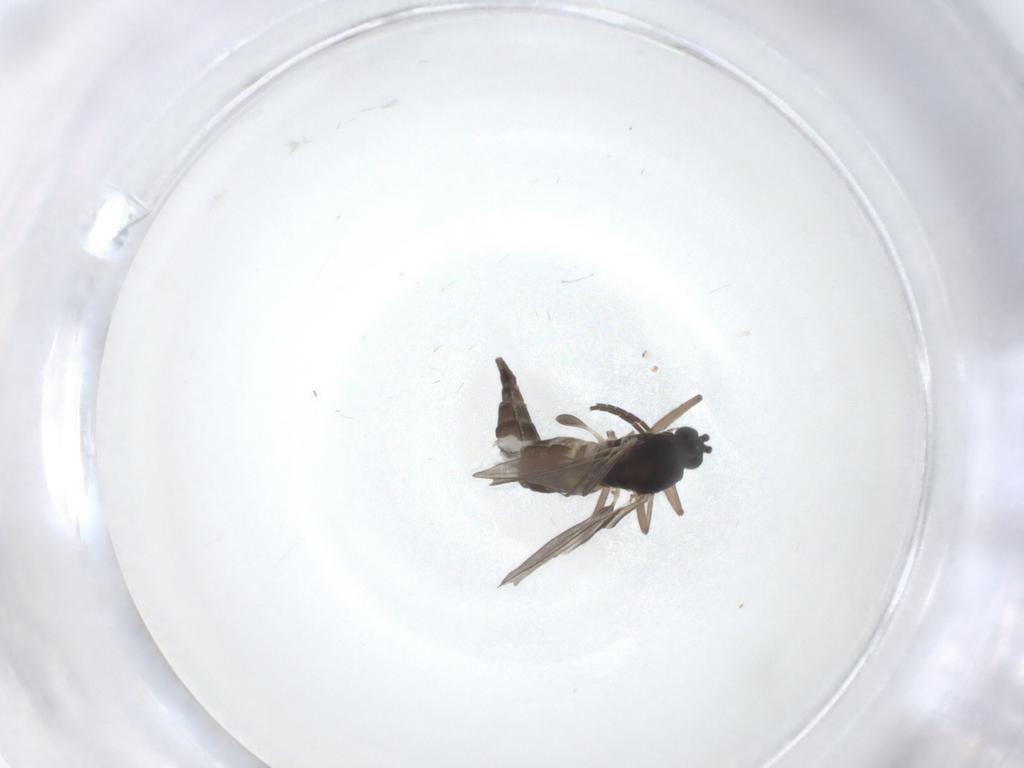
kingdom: Animalia
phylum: Arthropoda
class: Insecta
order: Diptera
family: Sciaridae
